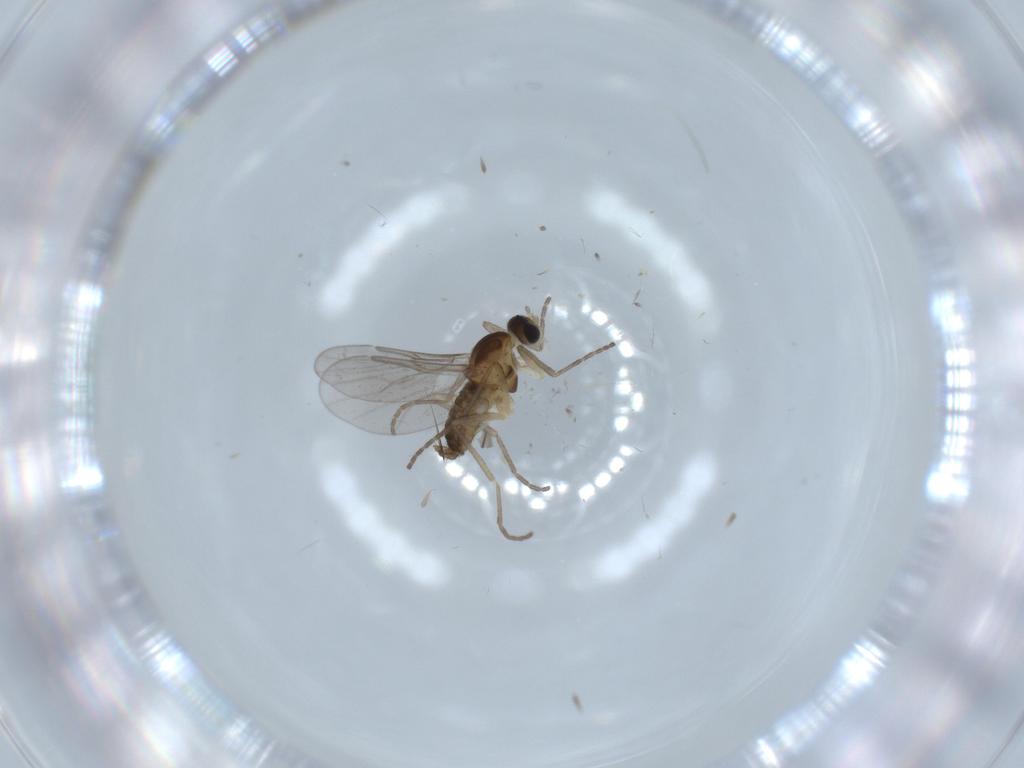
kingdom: Animalia
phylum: Arthropoda
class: Insecta
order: Diptera
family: Cecidomyiidae
